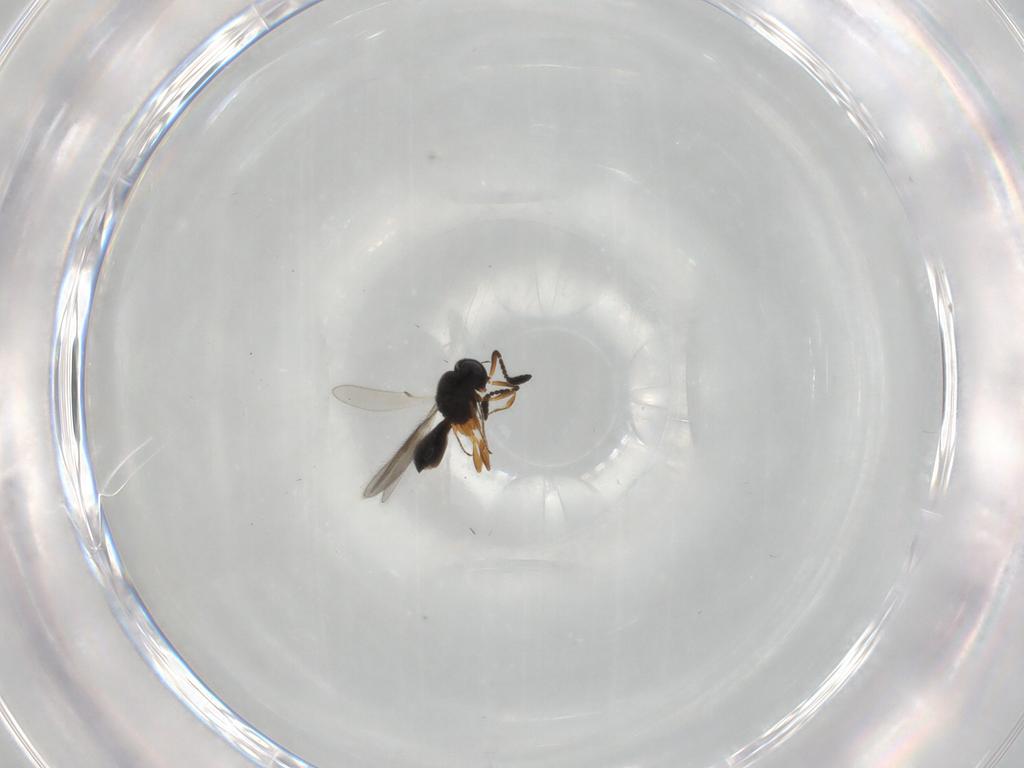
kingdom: Animalia
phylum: Arthropoda
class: Insecta
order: Hymenoptera
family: Scelionidae
